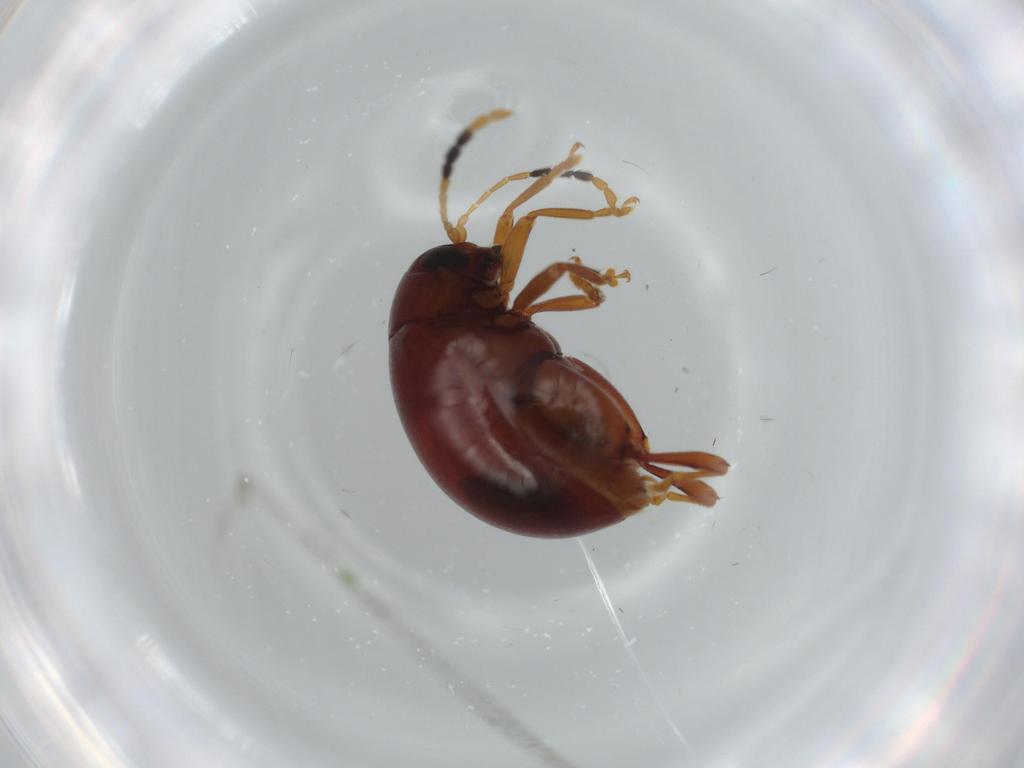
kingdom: Animalia
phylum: Arthropoda
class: Insecta
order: Coleoptera
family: Chrysomelidae
